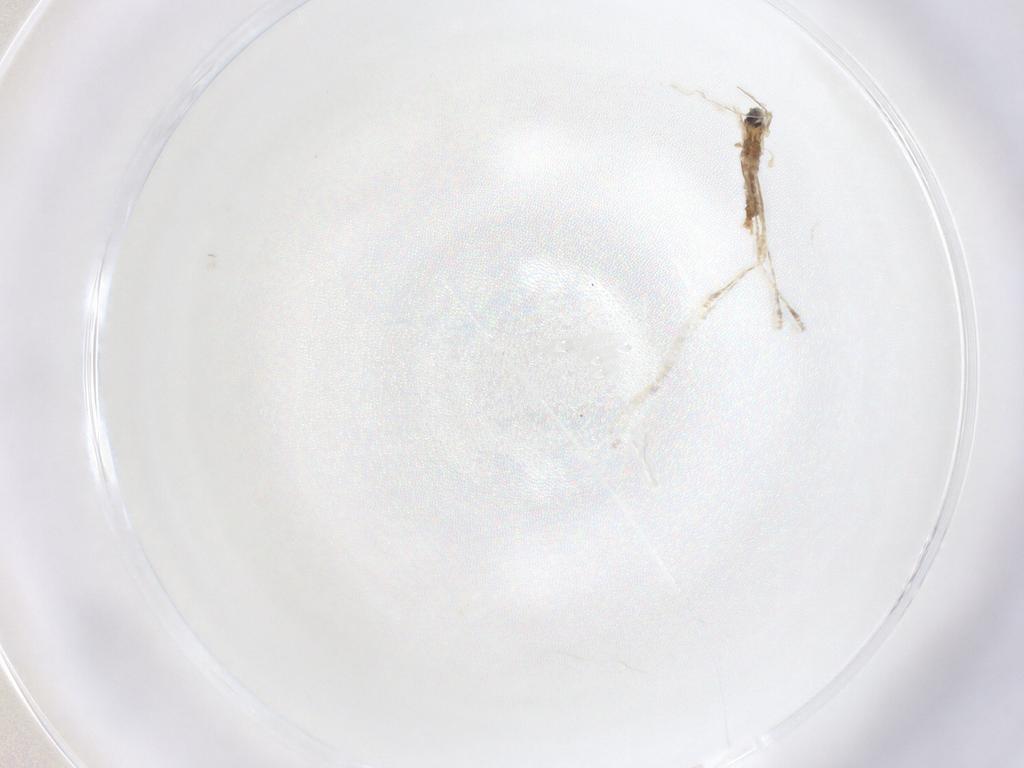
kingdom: Animalia
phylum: Arthropoda
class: Insecta
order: Diptera
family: Cecidomyiidae
